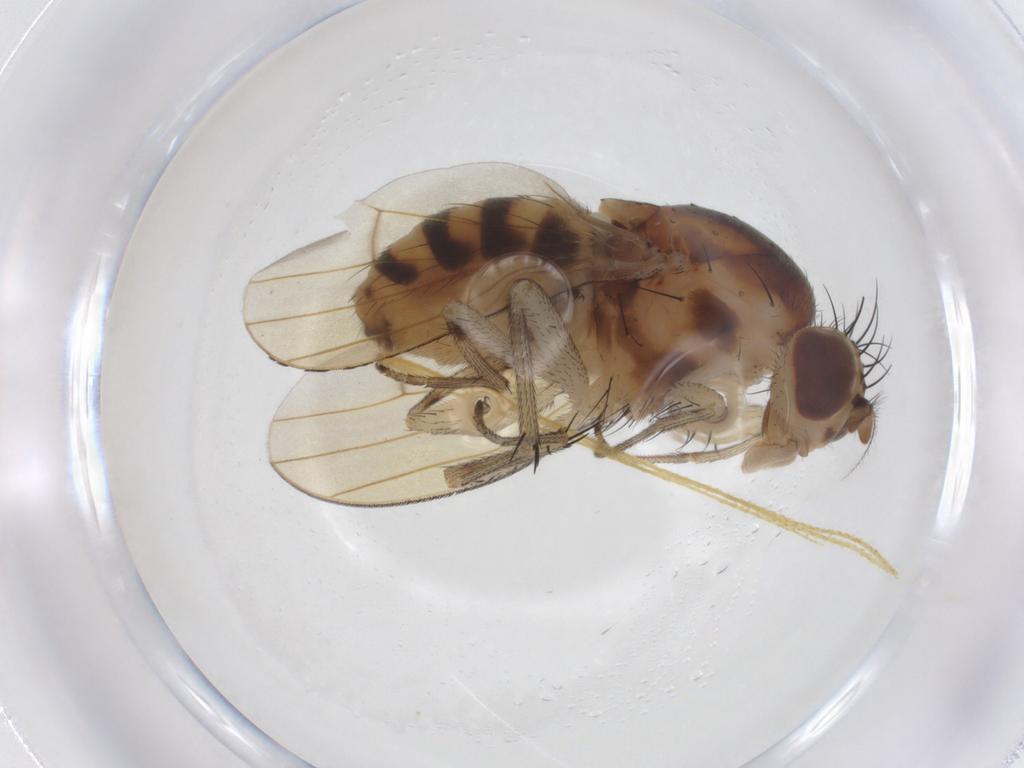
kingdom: Animalia
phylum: Arthropoda
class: Insecta
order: Diptera
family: Lauxaniidae
